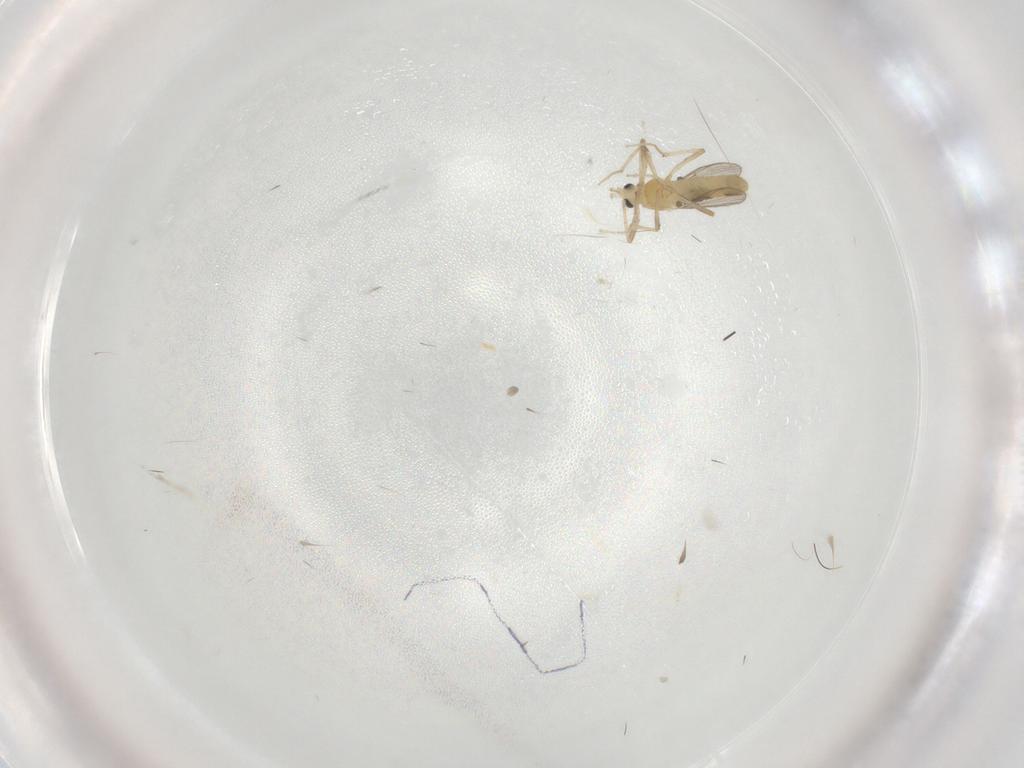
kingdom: Animalia
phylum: Arthropoda
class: Insecta
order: Diptera
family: Chironomidae
